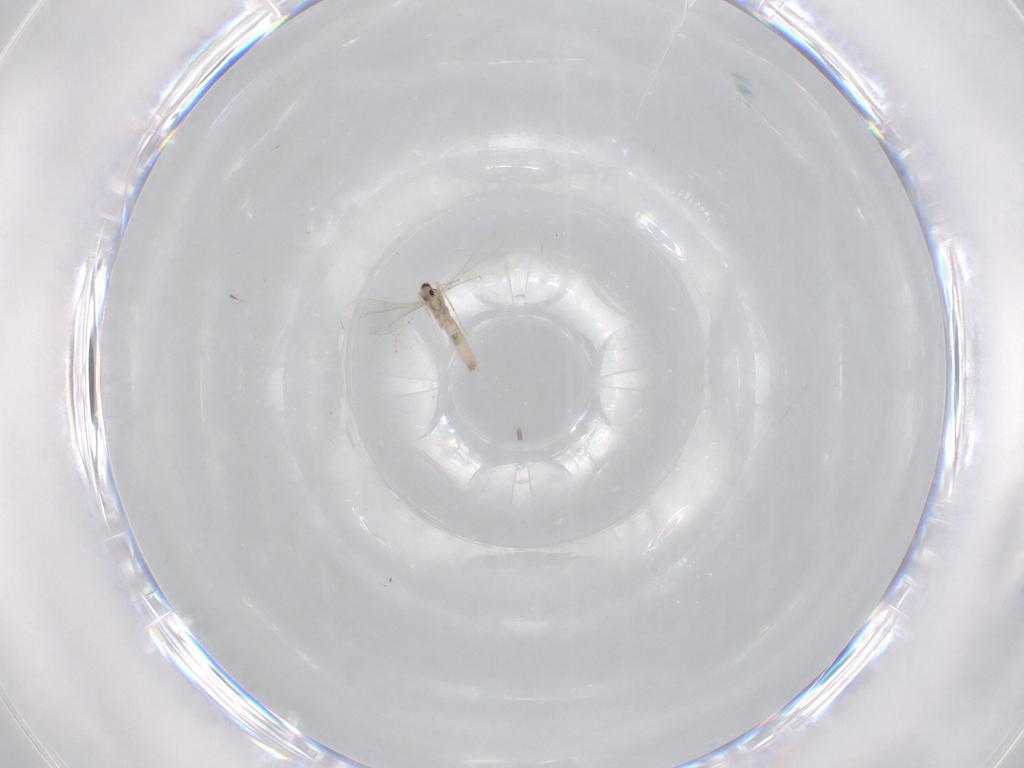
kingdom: Animalia
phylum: Arthropoda
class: Insecta
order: Diptera
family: Cecidomyiidae
